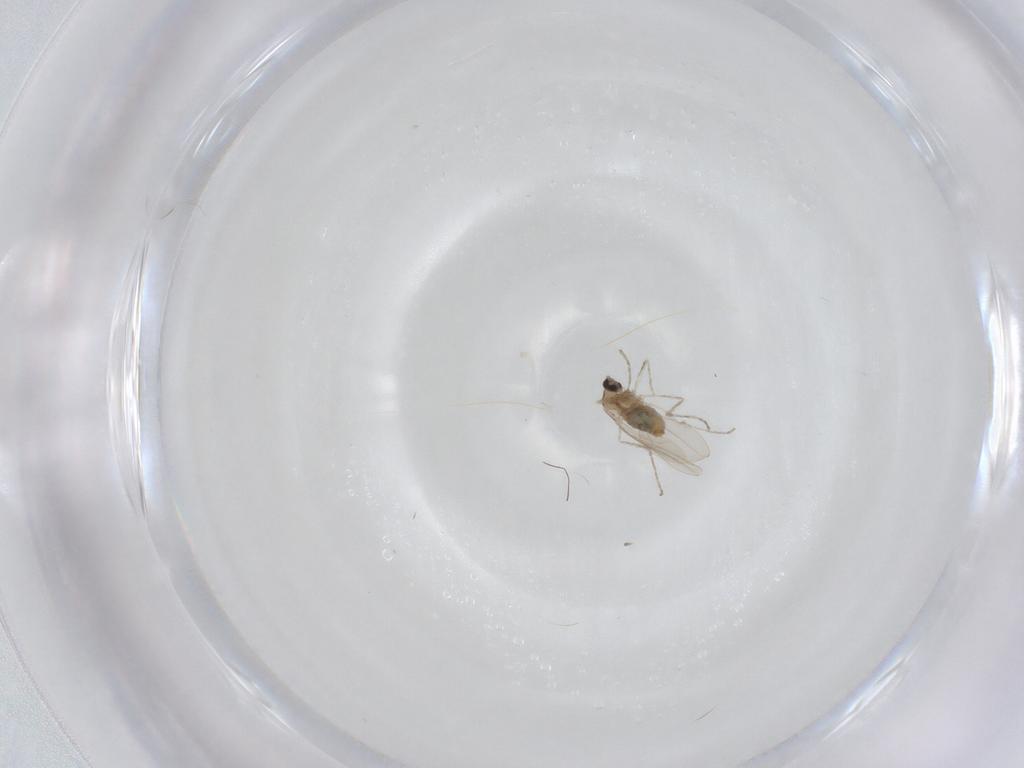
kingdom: Animalia
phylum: Arthropoda
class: Insecta
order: Diptera
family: Cecidomyiidae
